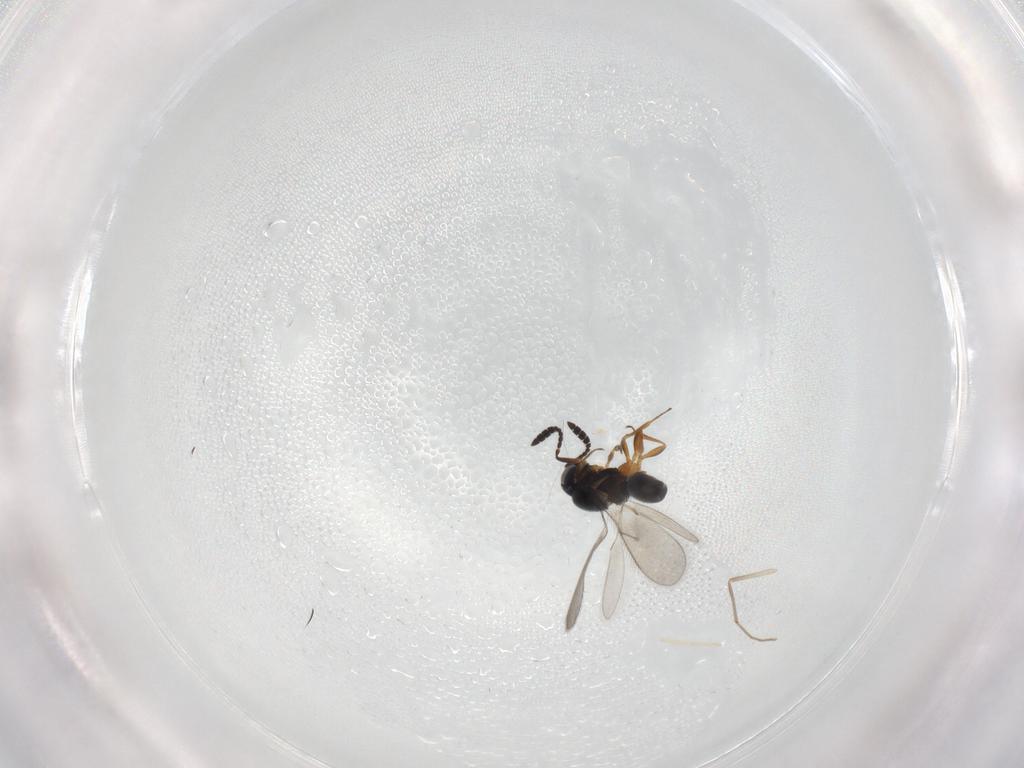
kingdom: Animalia
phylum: Arthropoda
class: Insecta
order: Hymenoptera
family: Scelionidae
